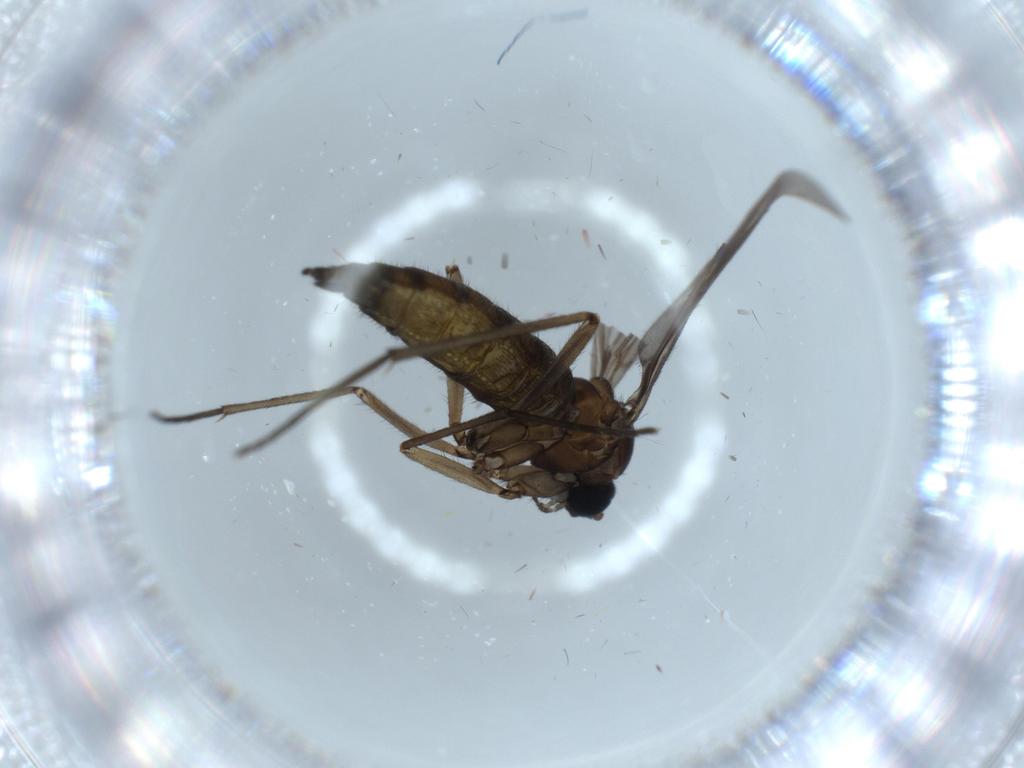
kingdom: Animalia
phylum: Arthropoda
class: Insecta
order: Diptera
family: Sciaridae
